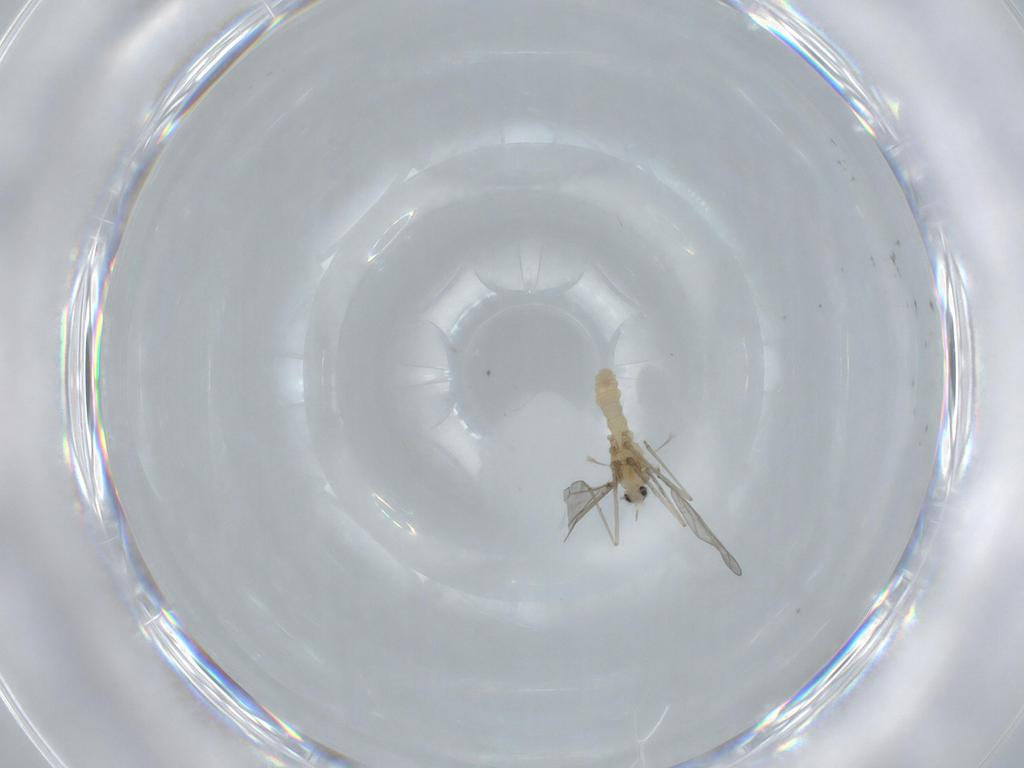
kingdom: Animalia
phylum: Arthropoda
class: Insecta
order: Diptera
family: Cecidomyiidae
